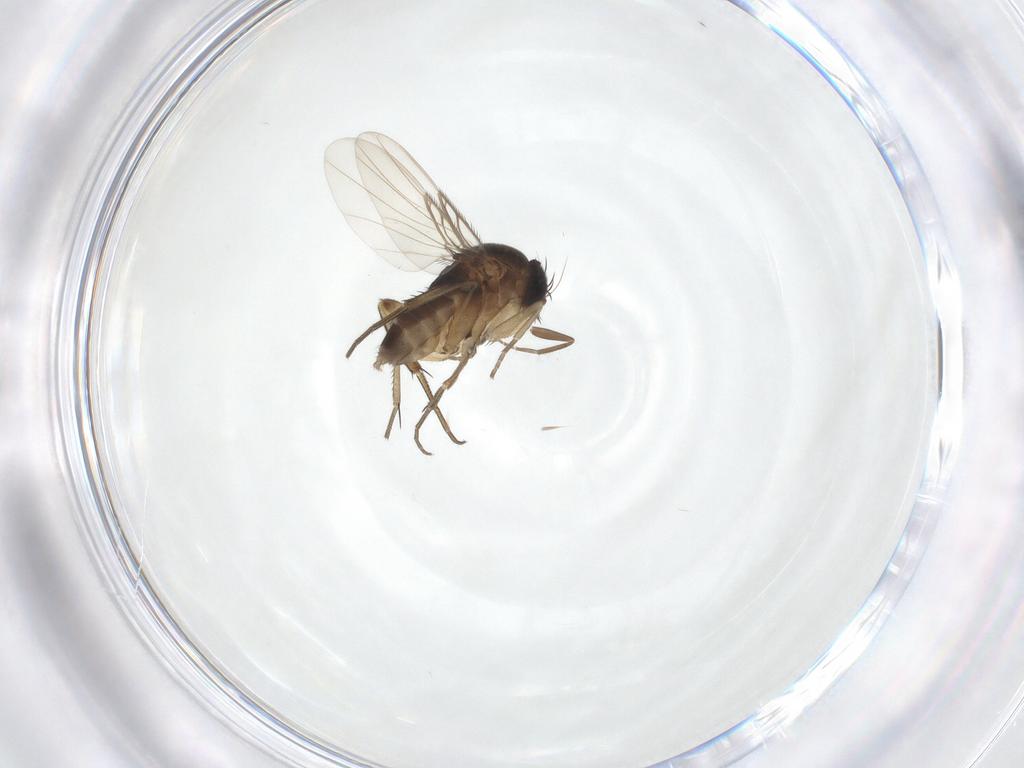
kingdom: Animalia
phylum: Arthropoda
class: Insecta
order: Diptera
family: Phoridae
